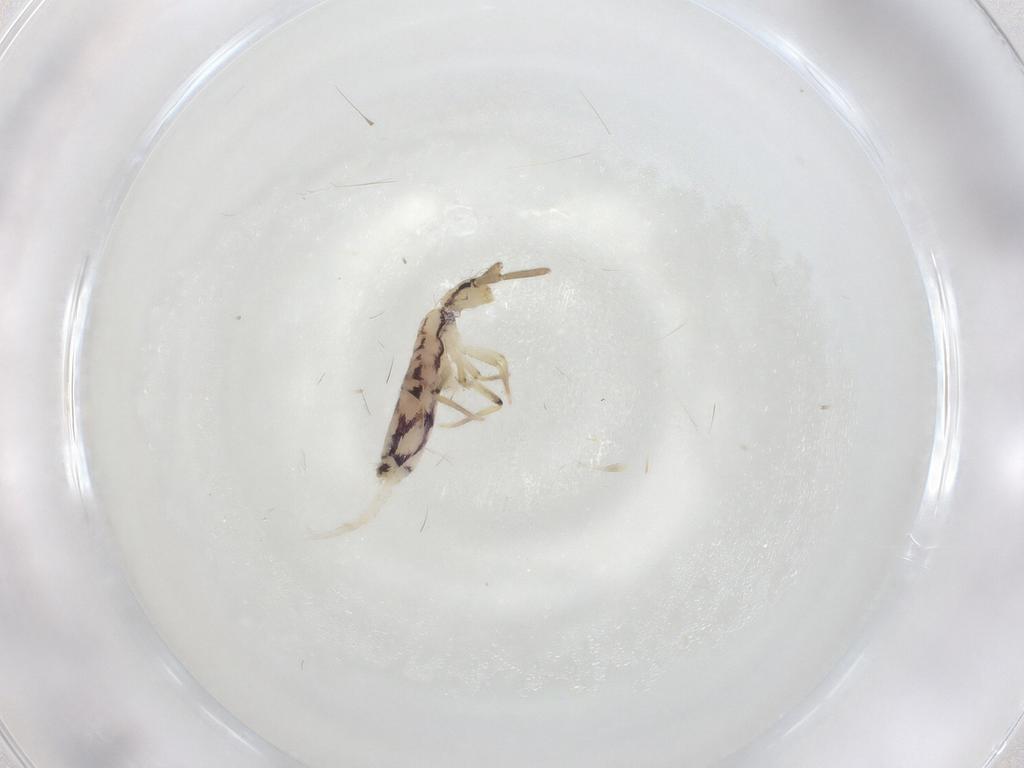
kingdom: Animalia
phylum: Arthropoda
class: Collembola
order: Entomobryomorpha
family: Entomobryidae
